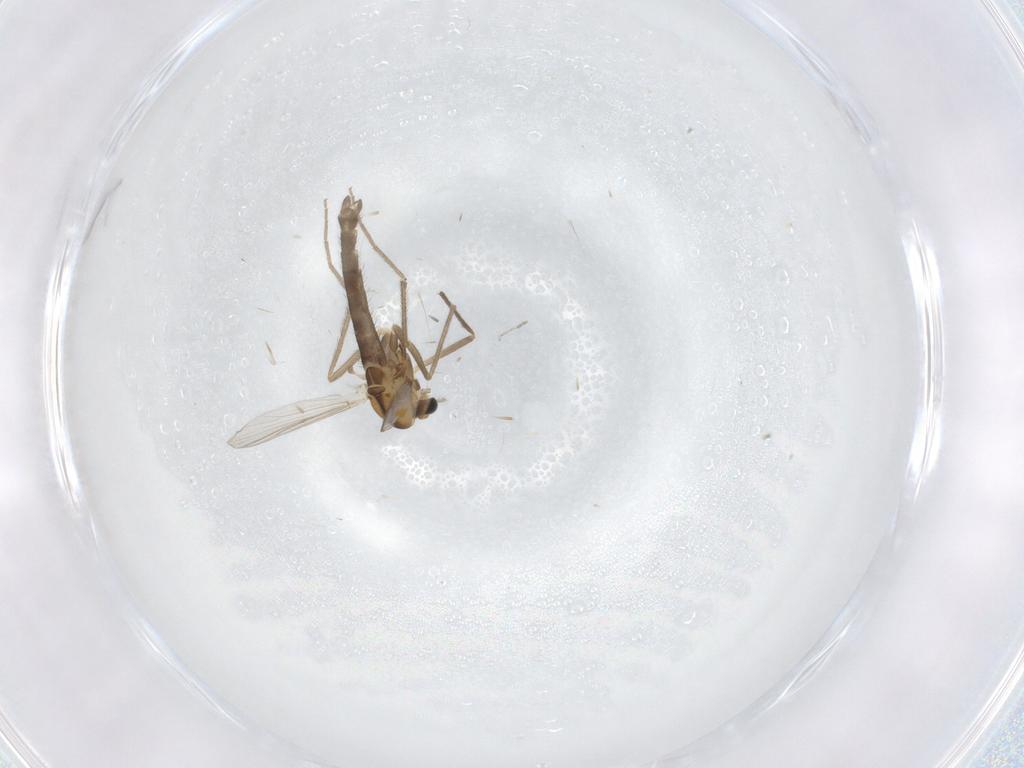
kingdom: Animalia
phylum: Arthropoda
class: Insecta
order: Diptera
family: Chironomidae
